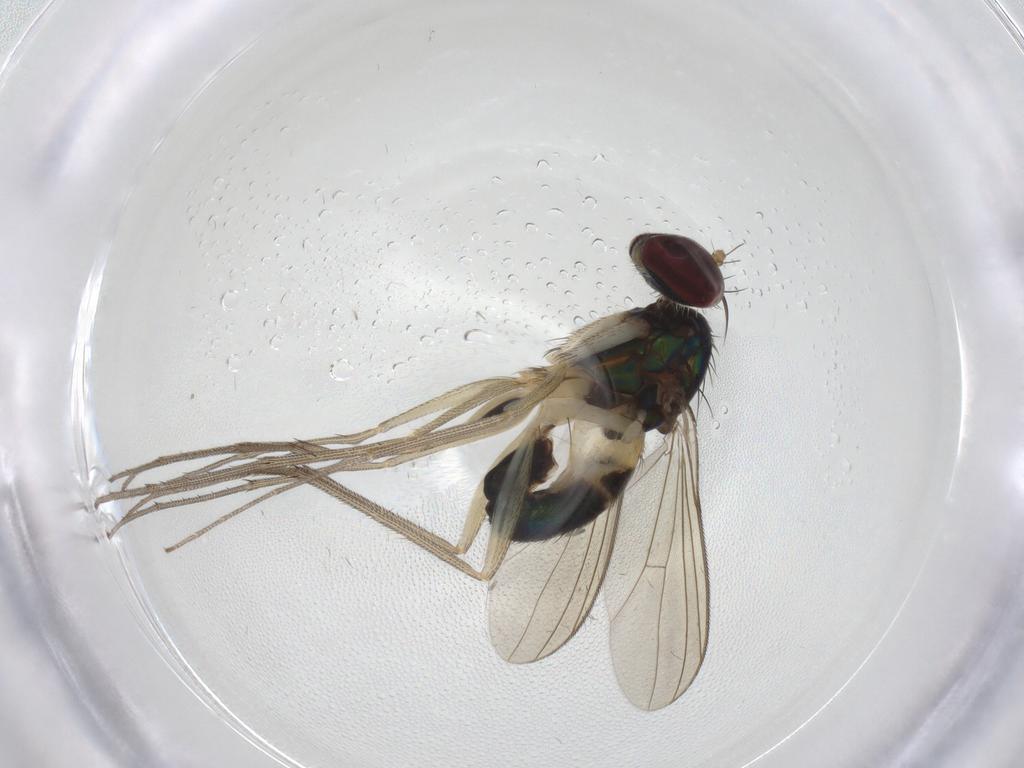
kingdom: Animalia
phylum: Arthropoda
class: Insecta
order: Diptera
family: Dolichopodidae
